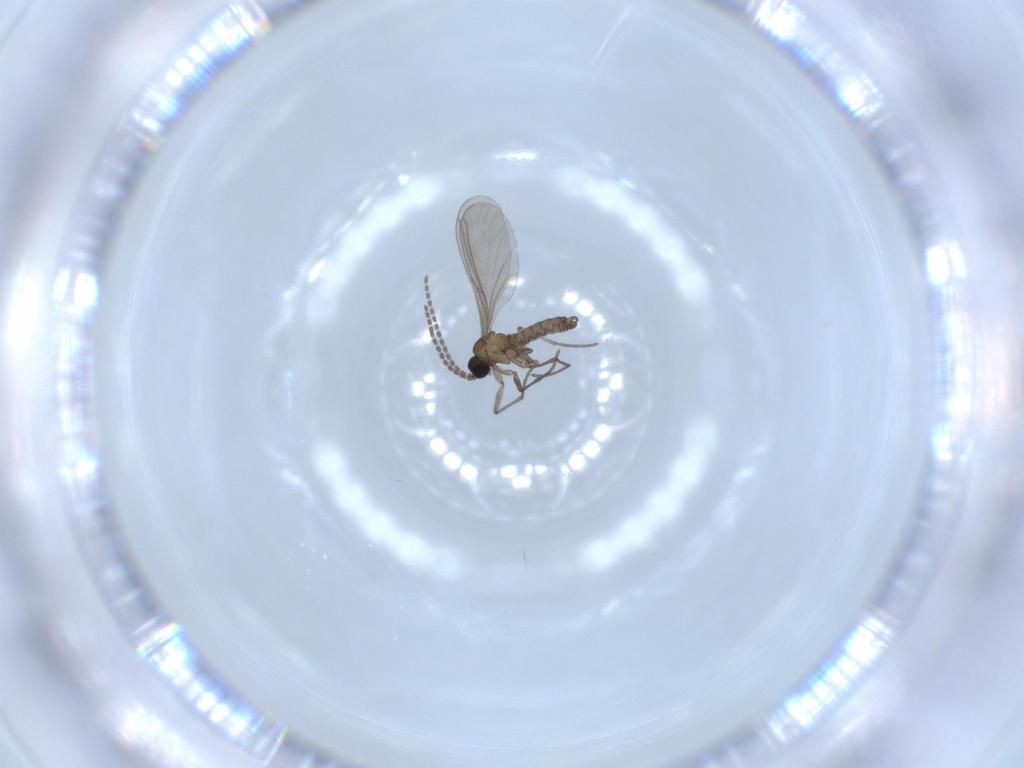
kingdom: Animalia
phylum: Arthropoda
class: Insecta
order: Diptera
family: Sciaridae
